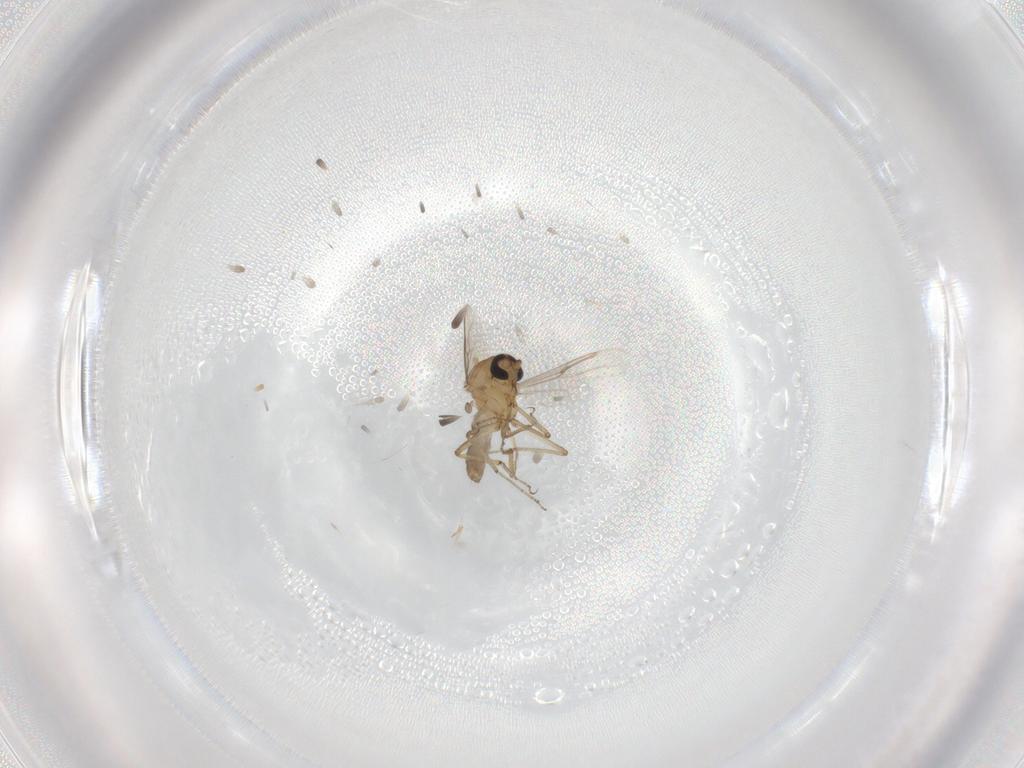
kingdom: Animalia
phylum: Arthropoda
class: Insecta
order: Diptera
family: Ceratopogonidae
